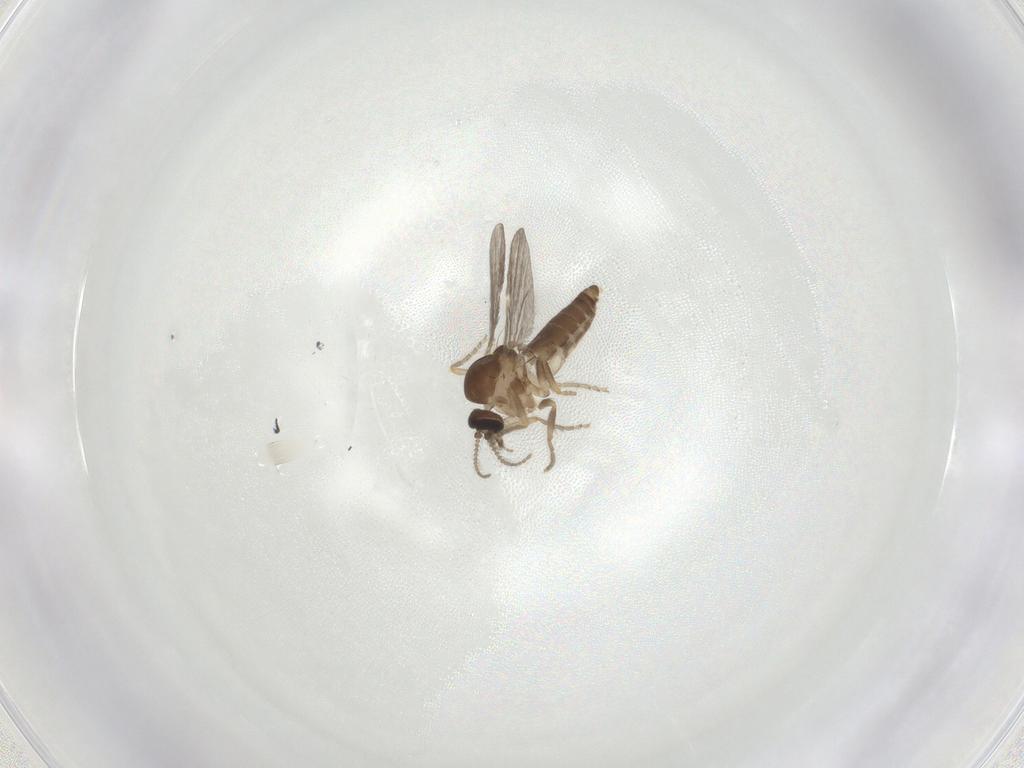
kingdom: Animalia
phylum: Arthropoda
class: Insecta
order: Diptera
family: Ceratopogonidae
